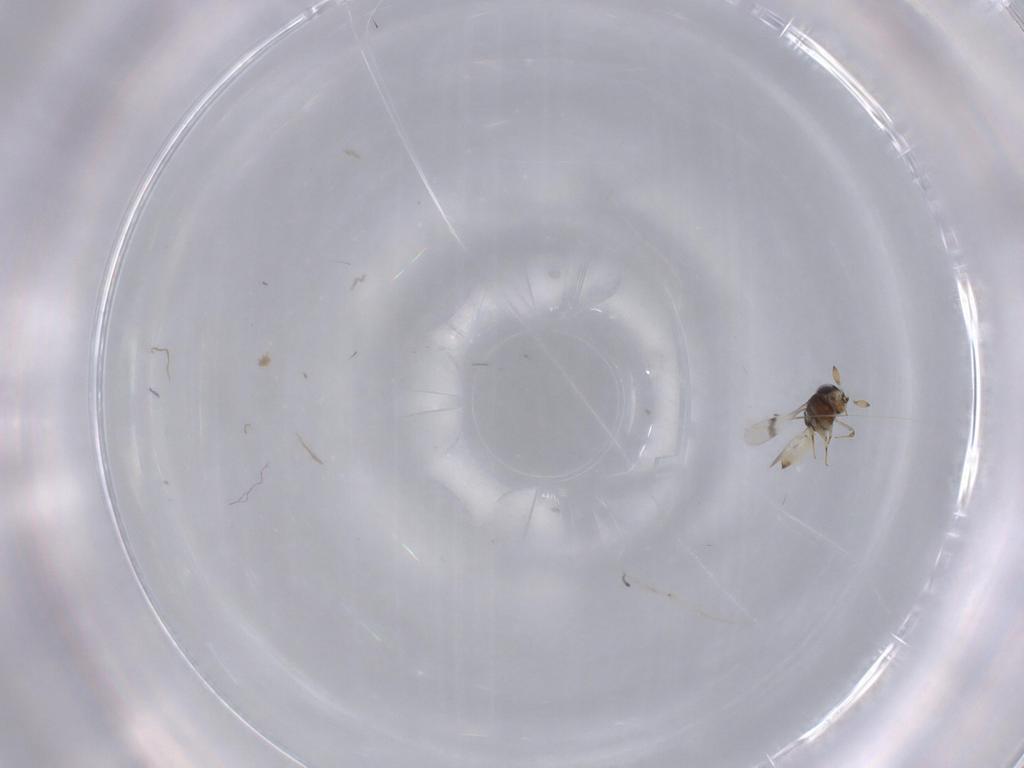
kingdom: Animalia
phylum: Arthropoda
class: Insecta
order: Hymenoptera
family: Scelionidae
